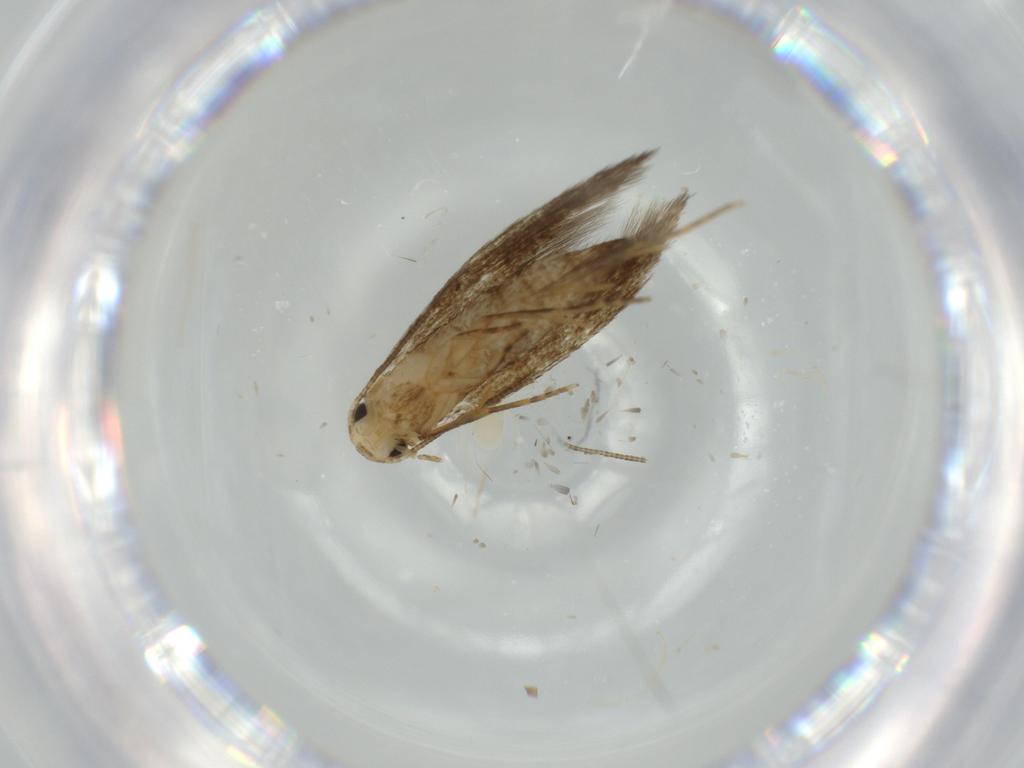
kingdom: Animalia
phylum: Arthropoda
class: Insecta
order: Lepidoptera
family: Tineidae
